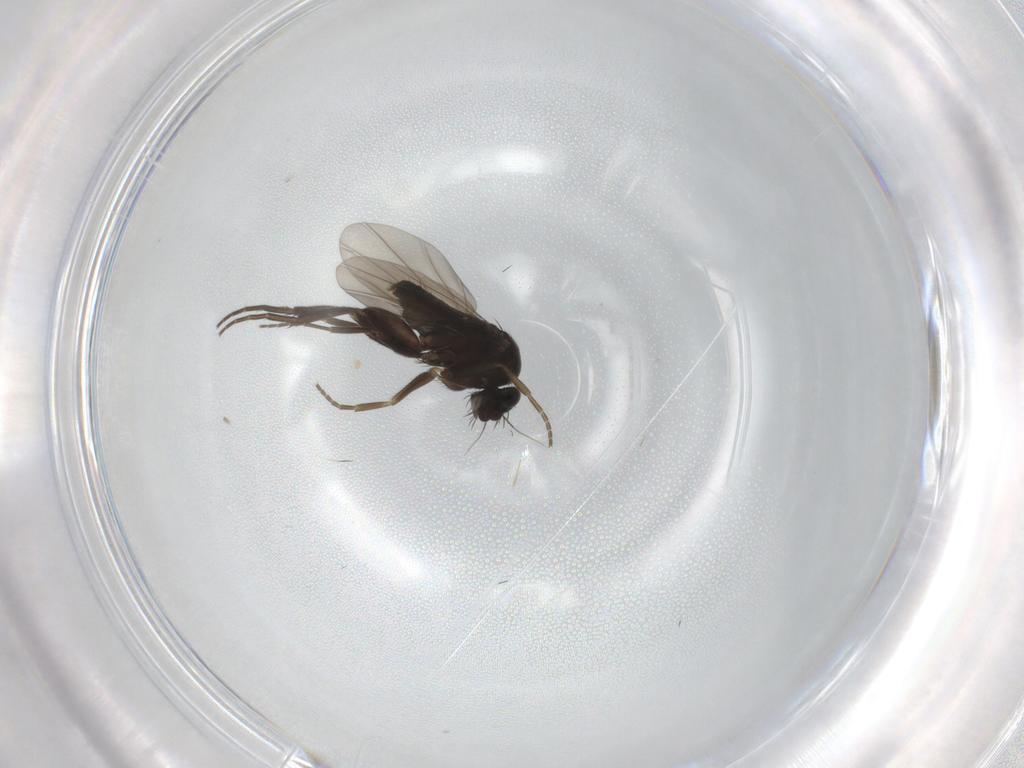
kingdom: Animalia
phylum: Arthropoda
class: Insecta
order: Diptera
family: Phoridae
